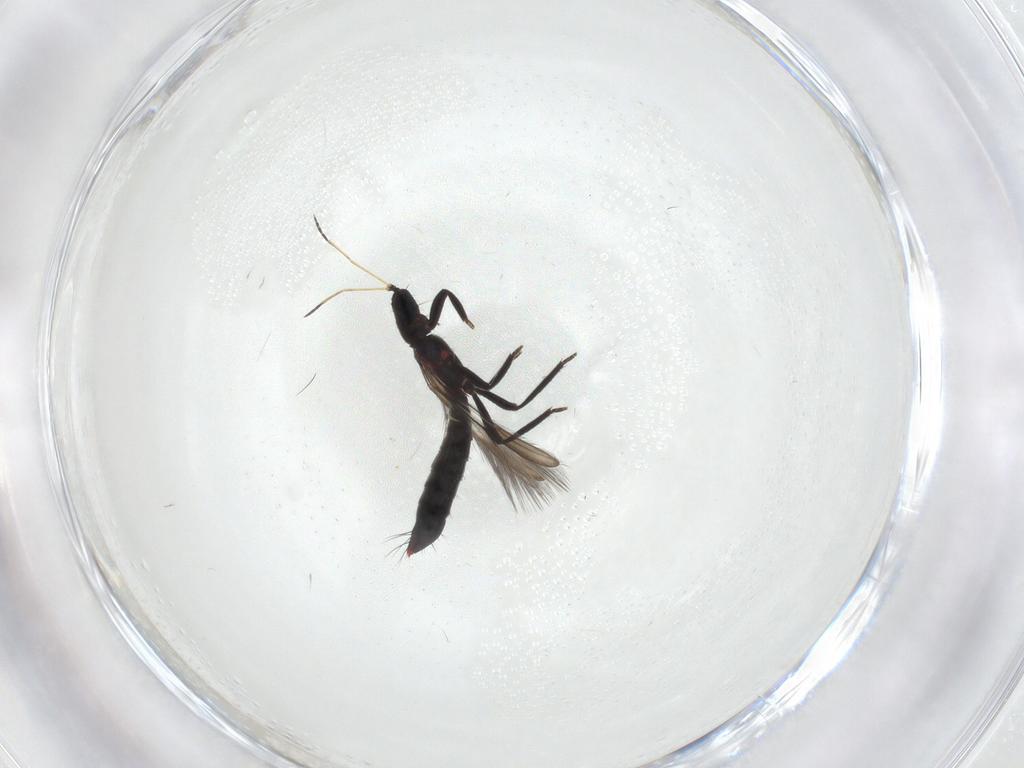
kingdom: Animalia
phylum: Arthropoda
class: Insecta
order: Thysanoptera
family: Aeolothripidae
